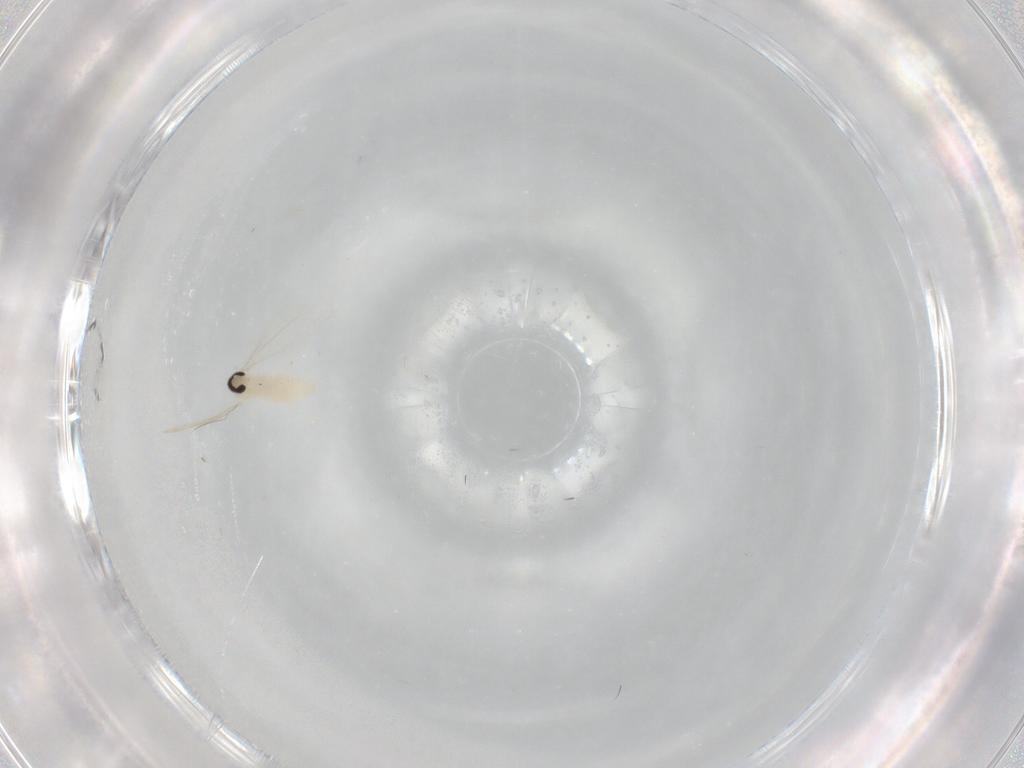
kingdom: Animalia
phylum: Arthropoda
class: Insecta
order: Diptera
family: Cecidomyiidae
